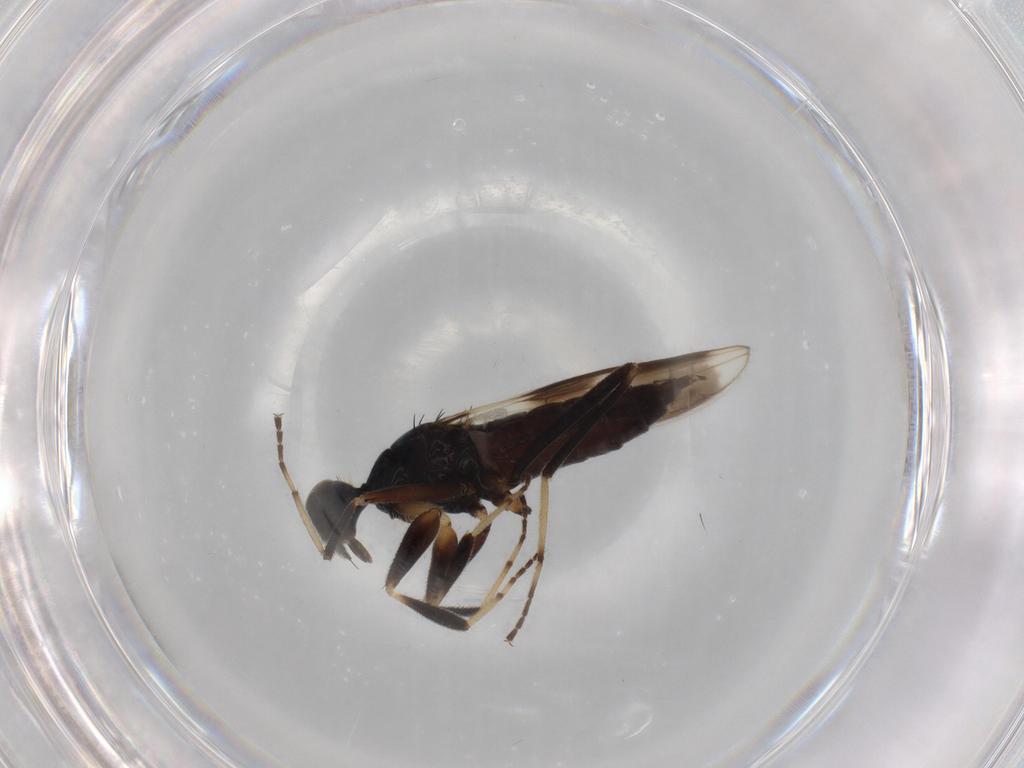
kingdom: Animalia
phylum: Arthropoda
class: Insecta
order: Diptera
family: Hybotidae
